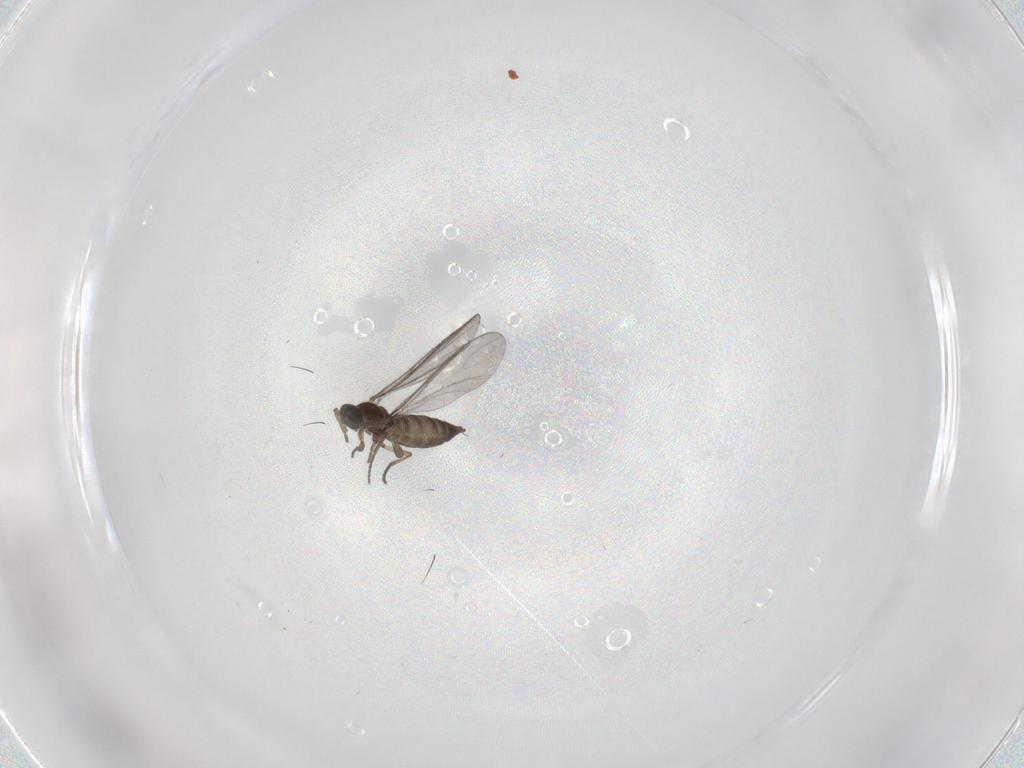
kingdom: Animalia
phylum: Arthropoda
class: Insecta
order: Diptera
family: Sciaridae
